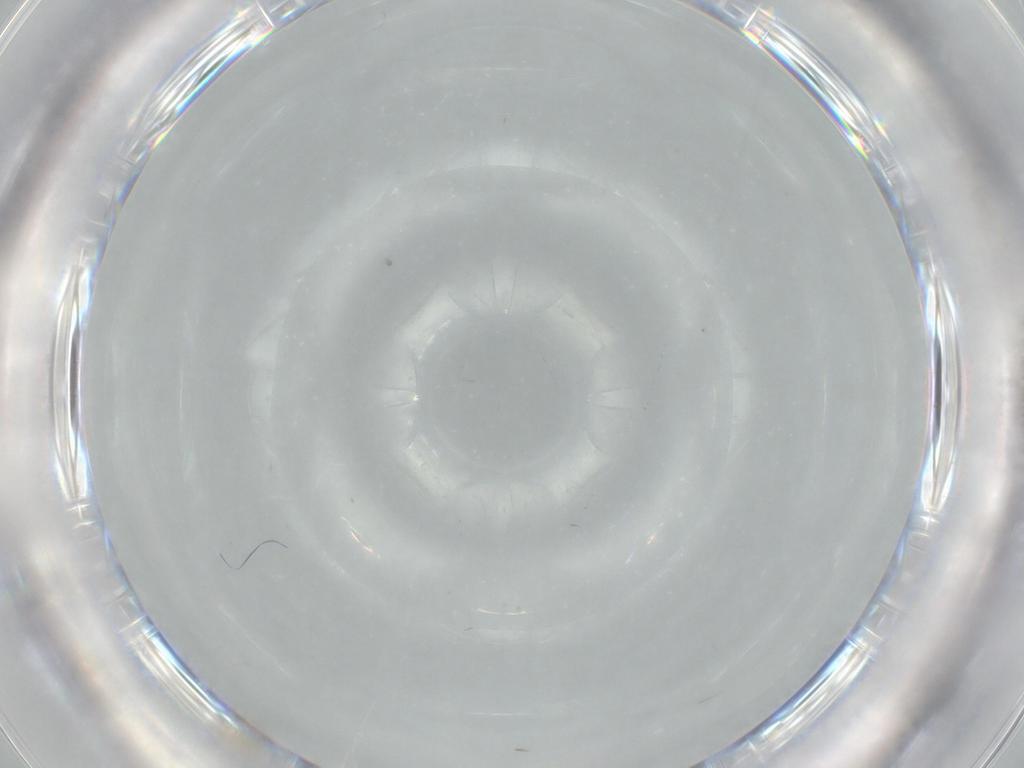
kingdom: Animalia
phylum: Arthropoda
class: Insecta
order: Hymenoptera
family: Mymaridae
